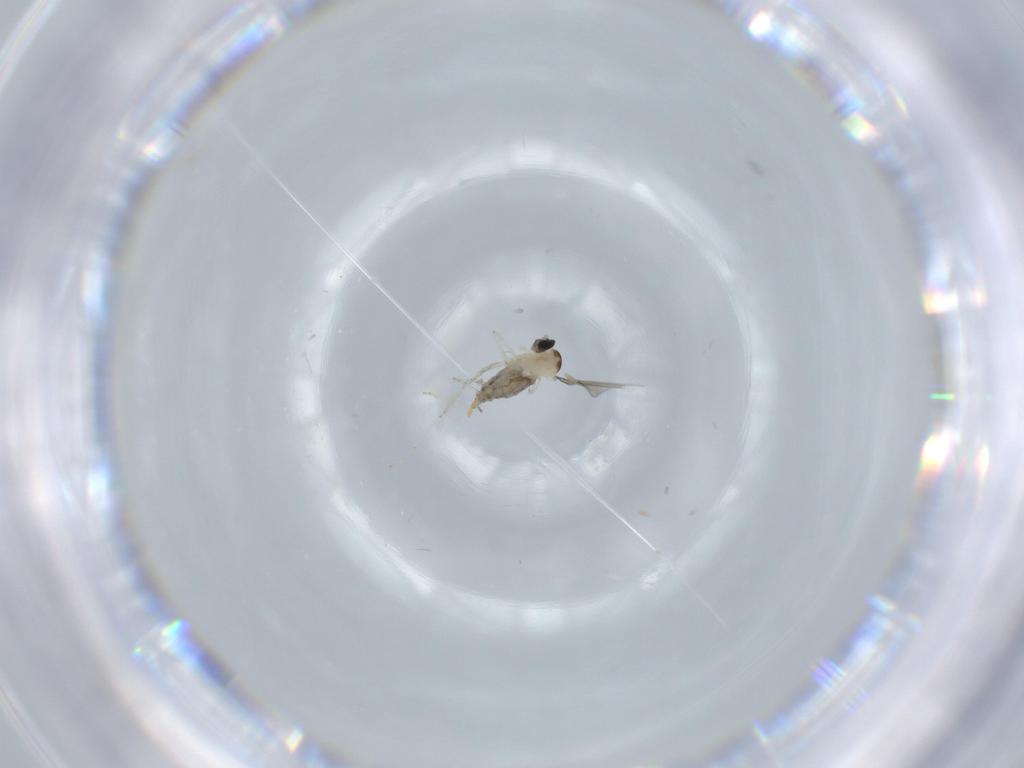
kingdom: Animalia
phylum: Arthropoda
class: Insecta
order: Diptera
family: Cecidomyiidae
